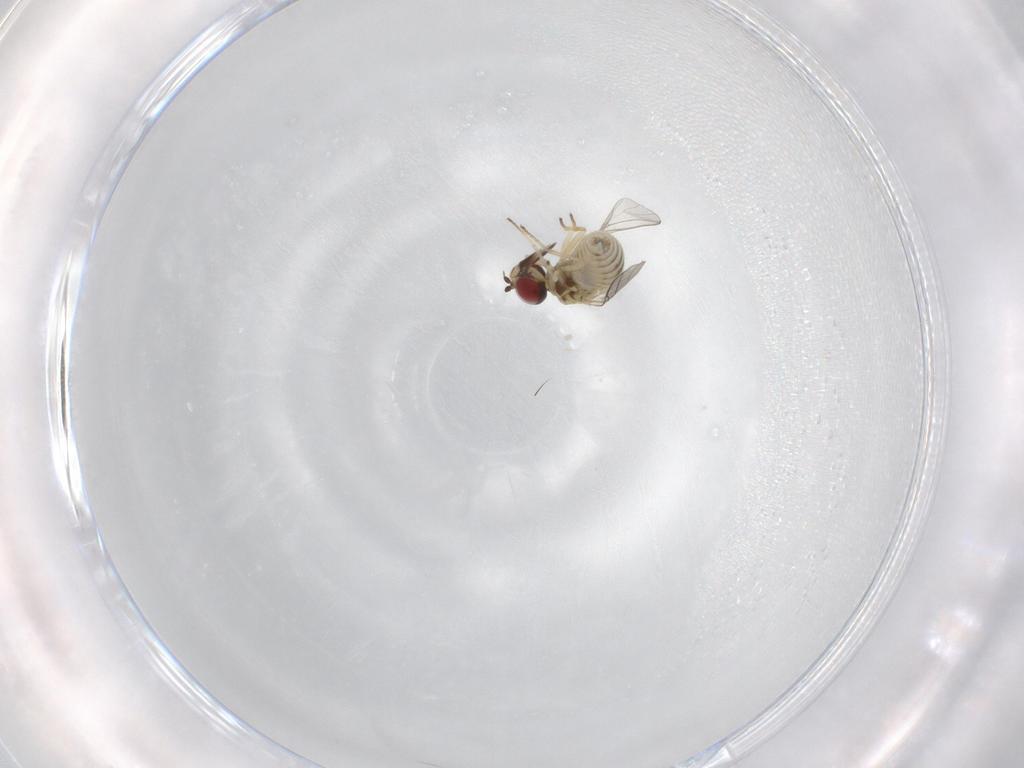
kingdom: Animalia
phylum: Arthropoda
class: Insecta
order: Diptera
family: Sarcophagidae
